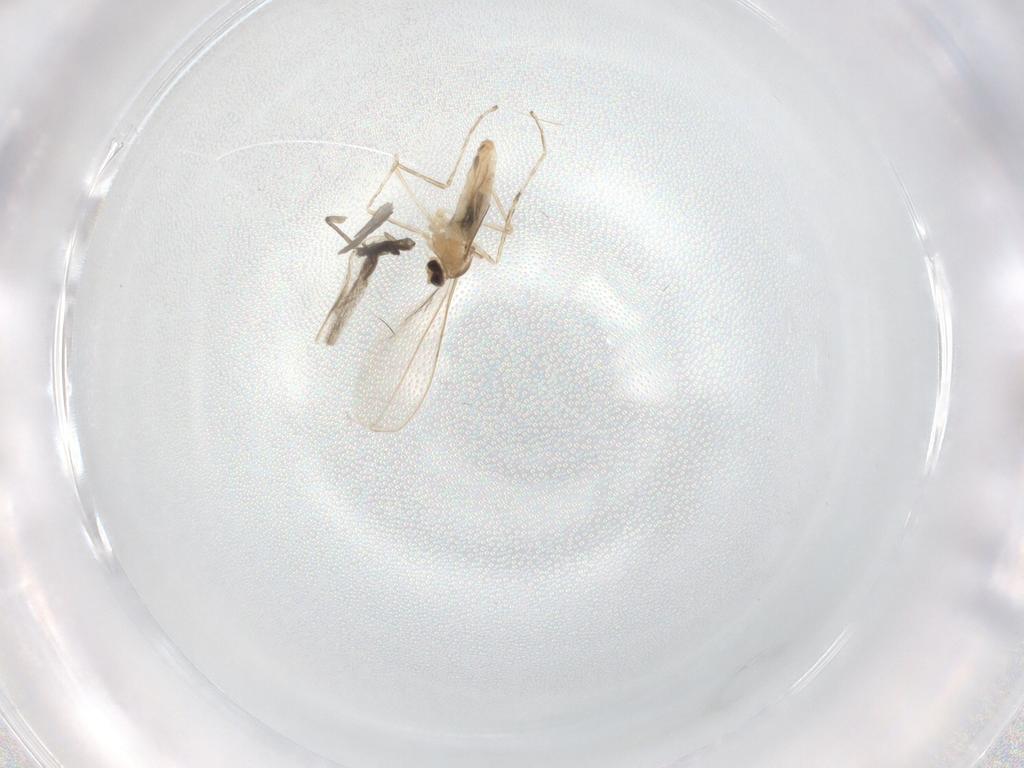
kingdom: Animalia
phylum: Arthropoda
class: Insecta
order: Diptera
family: Cecidomyiidae
